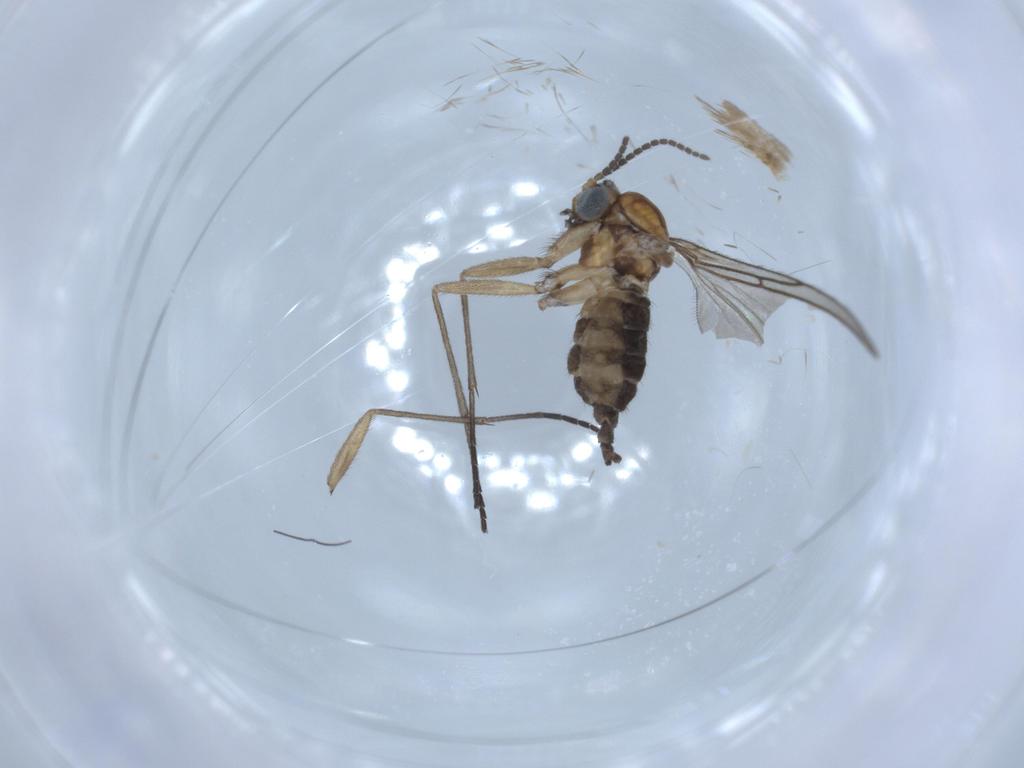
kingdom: Animalia
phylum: Arthropoda
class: Insecta
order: Diptera
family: Sciaridae
